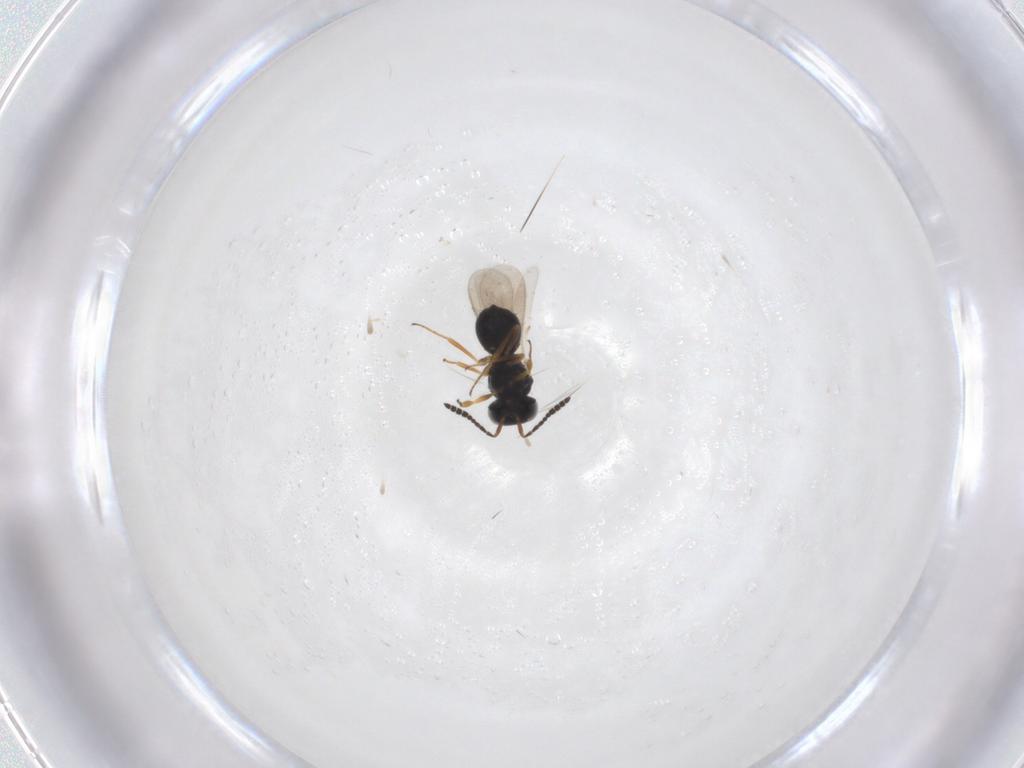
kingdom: Animalia
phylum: Arthropoda
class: Insecta
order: Hymenoptera
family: Scelionidae
